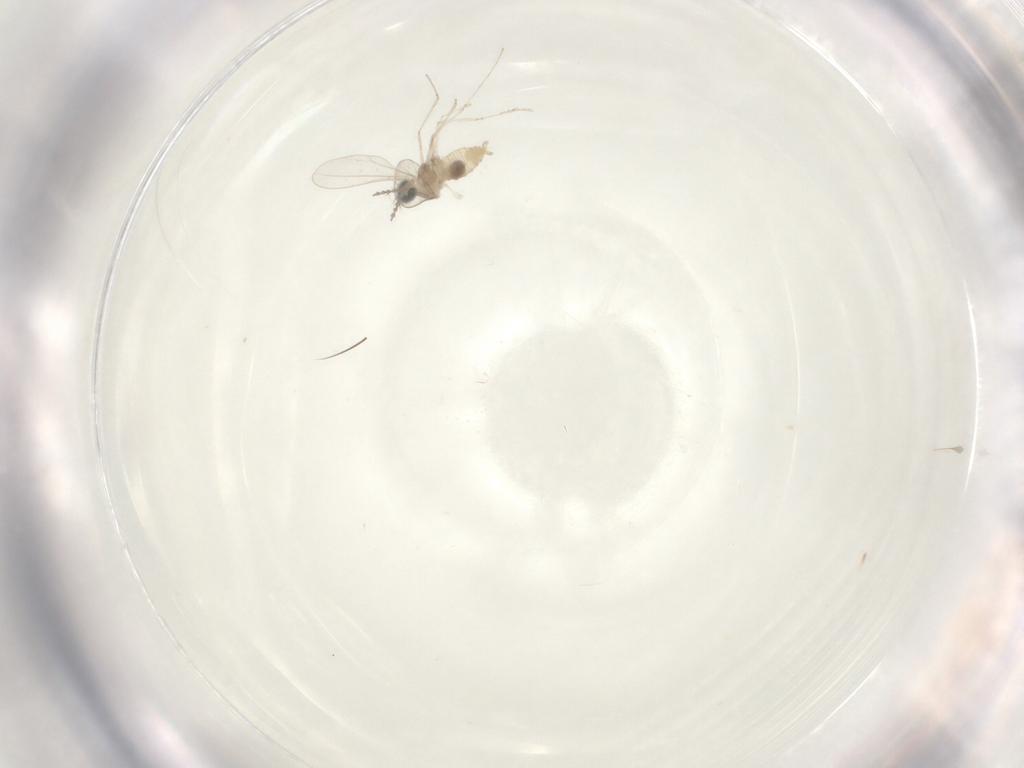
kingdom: Animalia
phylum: Arthropoda
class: Insecta
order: Diptera
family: Cecidomyiidae
